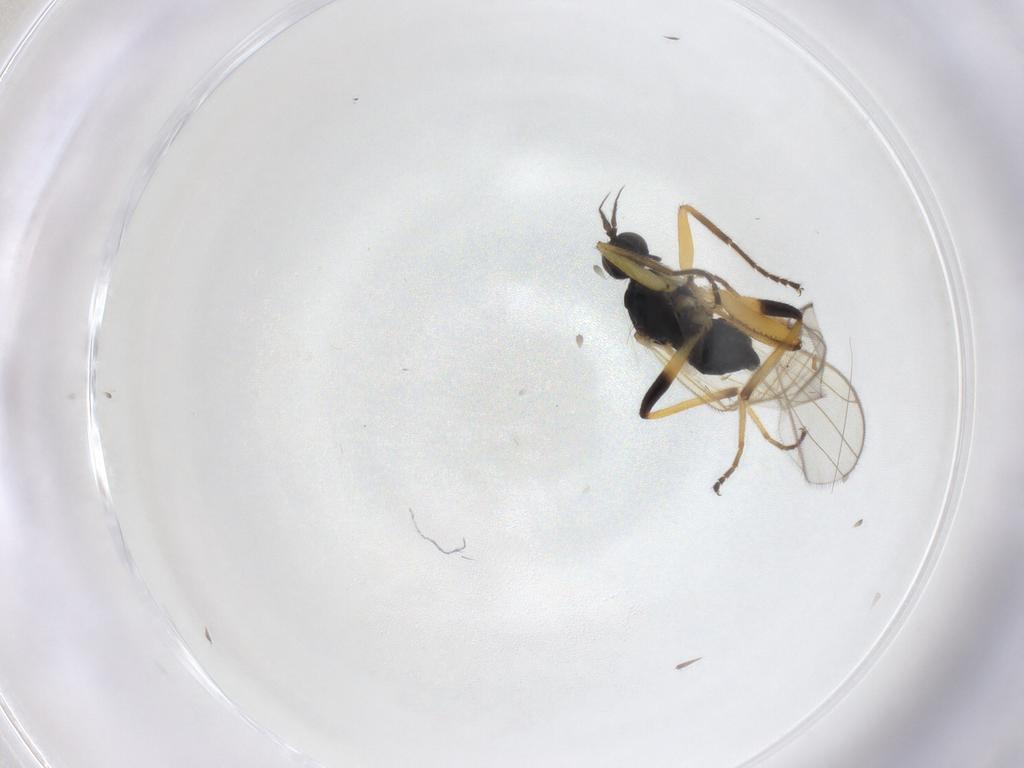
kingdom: Animalia
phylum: Arthropoda
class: Insecta
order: Diptera
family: Hybotidae
